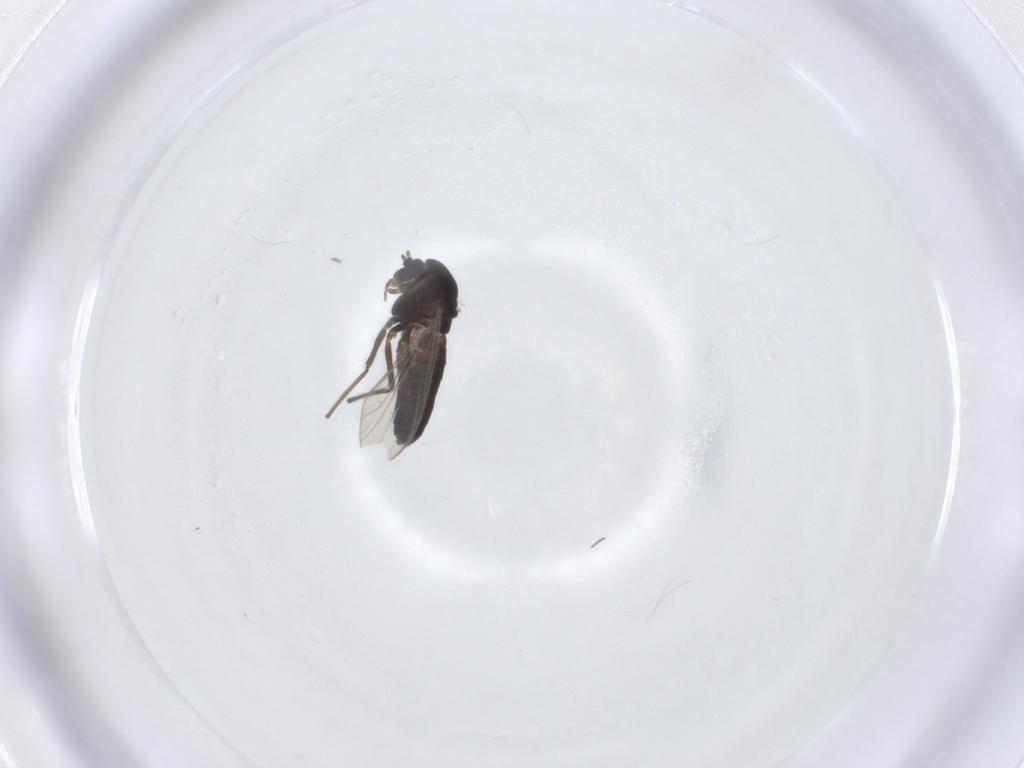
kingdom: Animalia
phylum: Arthropoda
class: Insecta
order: Diptera
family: Chironomidae
